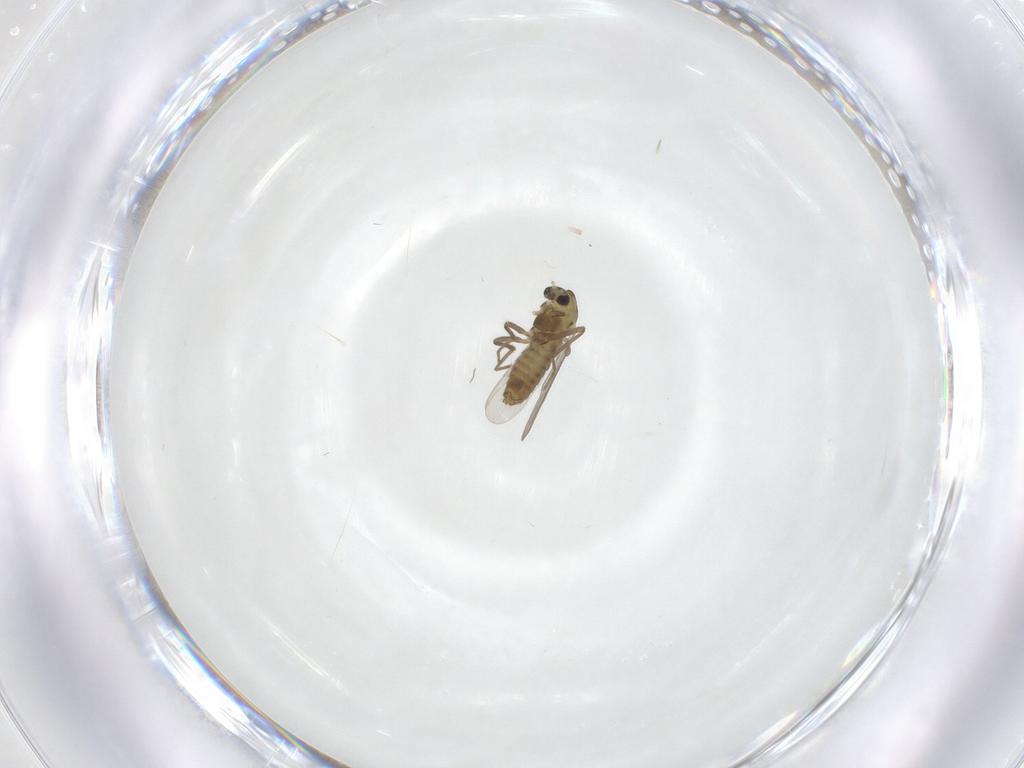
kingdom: Animalia
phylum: Arthropoda
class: Insecta
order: Diptera
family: Chironomidae
